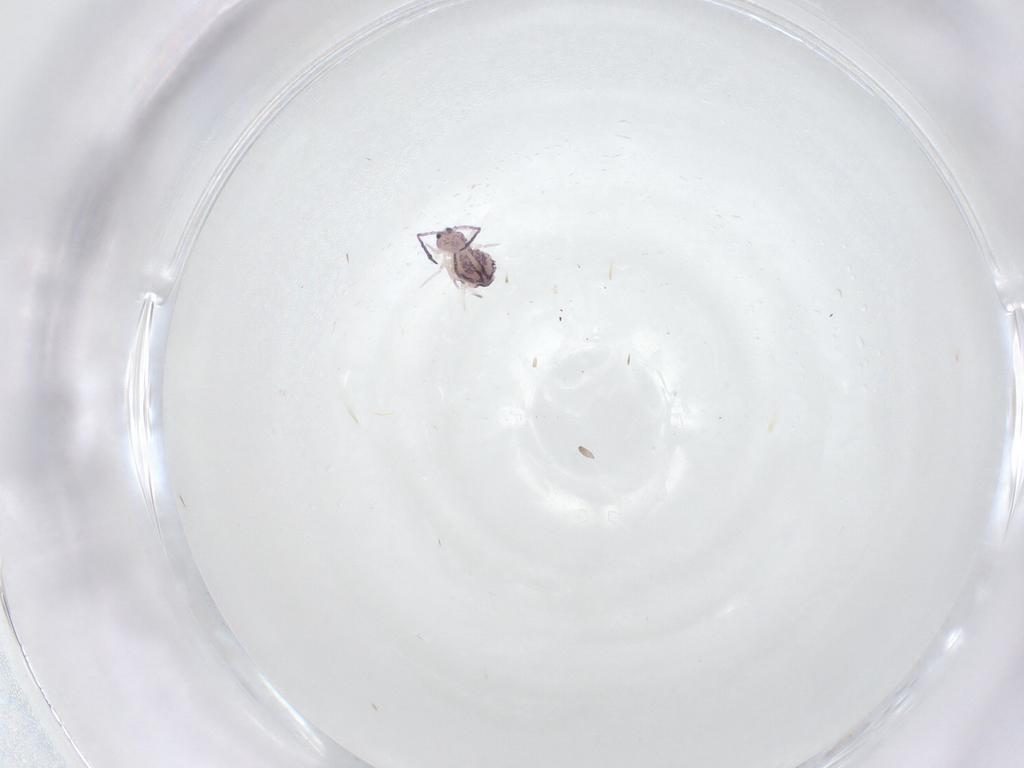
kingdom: Animalia
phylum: Arthropoda
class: Collembola
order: Symphypleona
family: Dicyrtomidae
